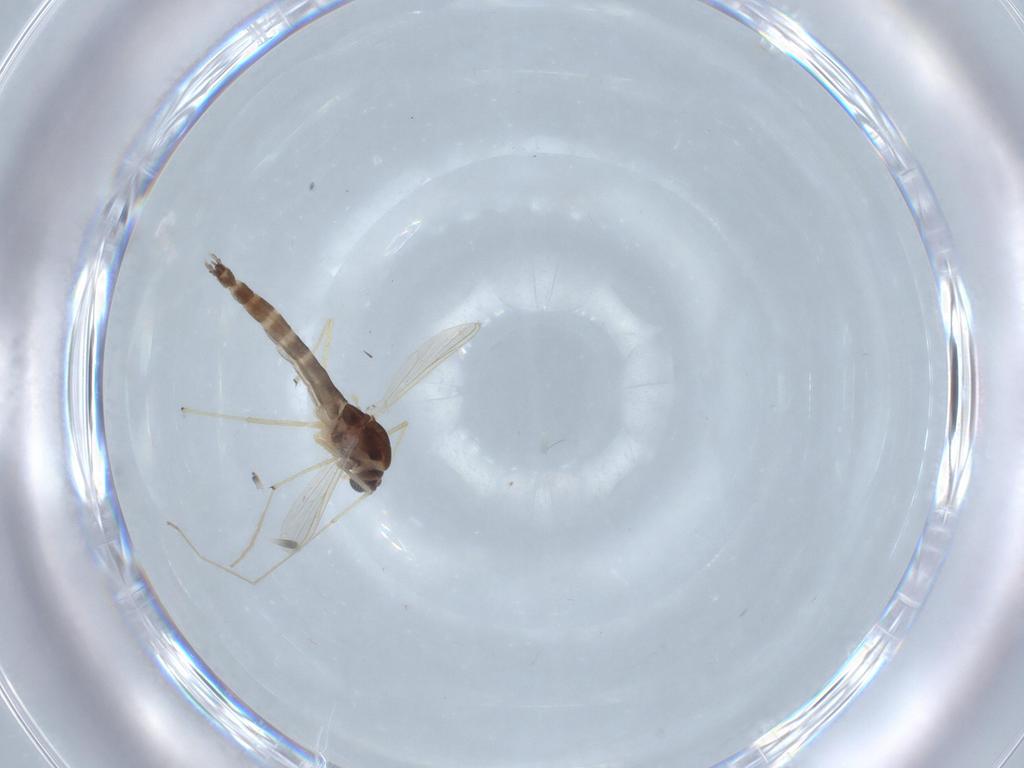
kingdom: Animalia
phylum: Arthropoda
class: Insecta
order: Diptera
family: Chironomidae
